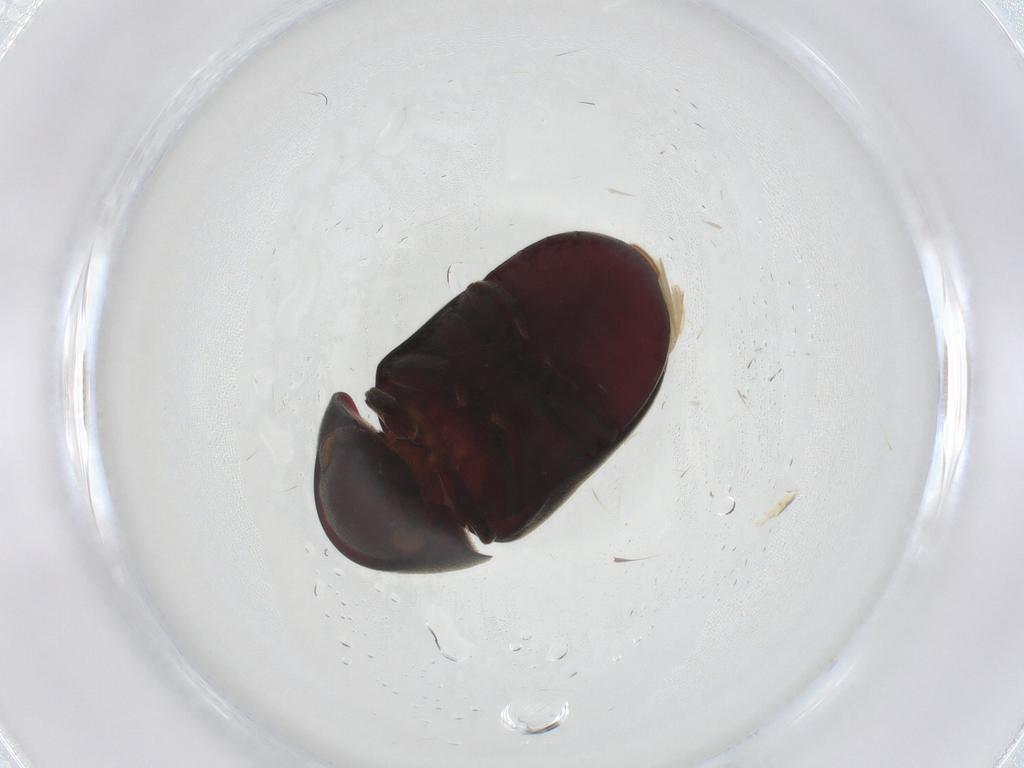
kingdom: Animalia
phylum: Arthropoda
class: Insecta
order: Coleoptera
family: Ptinidae
